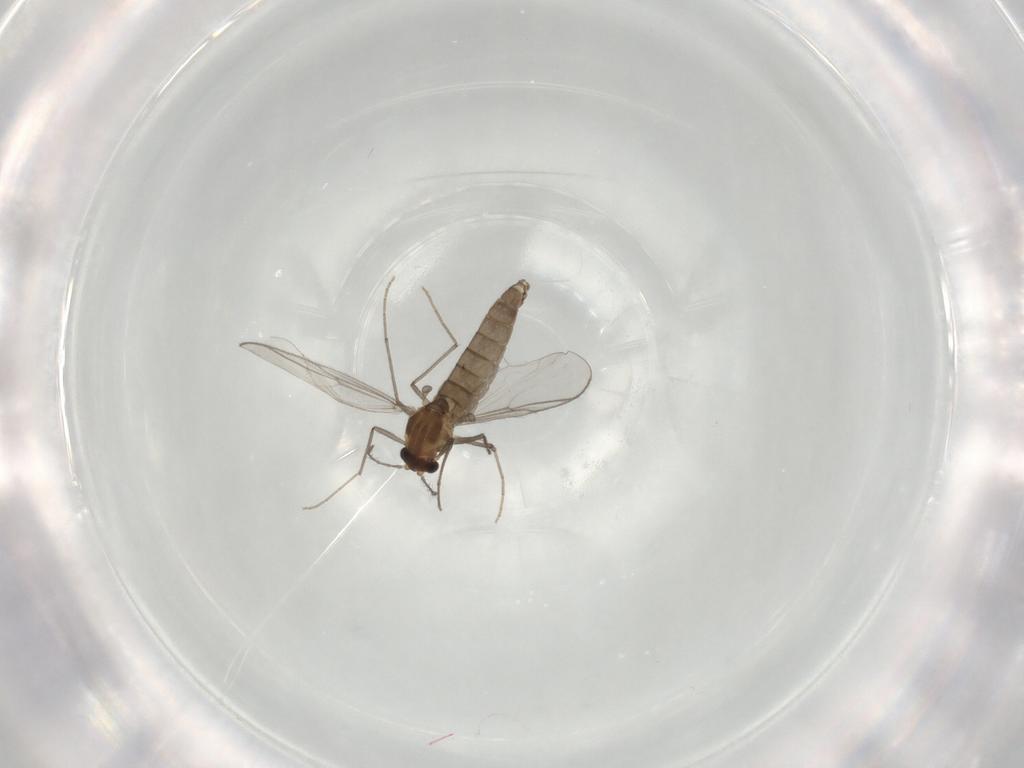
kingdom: Animalia
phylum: Arthropoda
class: Insecta
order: Diptera
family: Chironomidae
